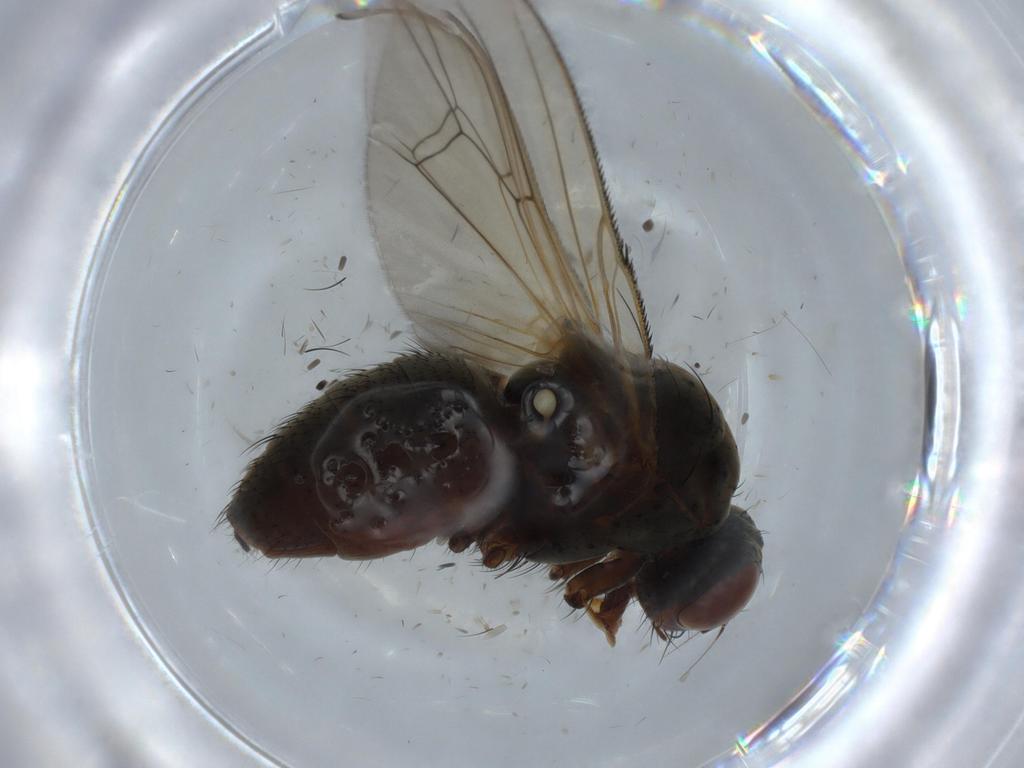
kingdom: Animalia
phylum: Arthropoda
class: Insecta
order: Diptera
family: Anthomyiidae
